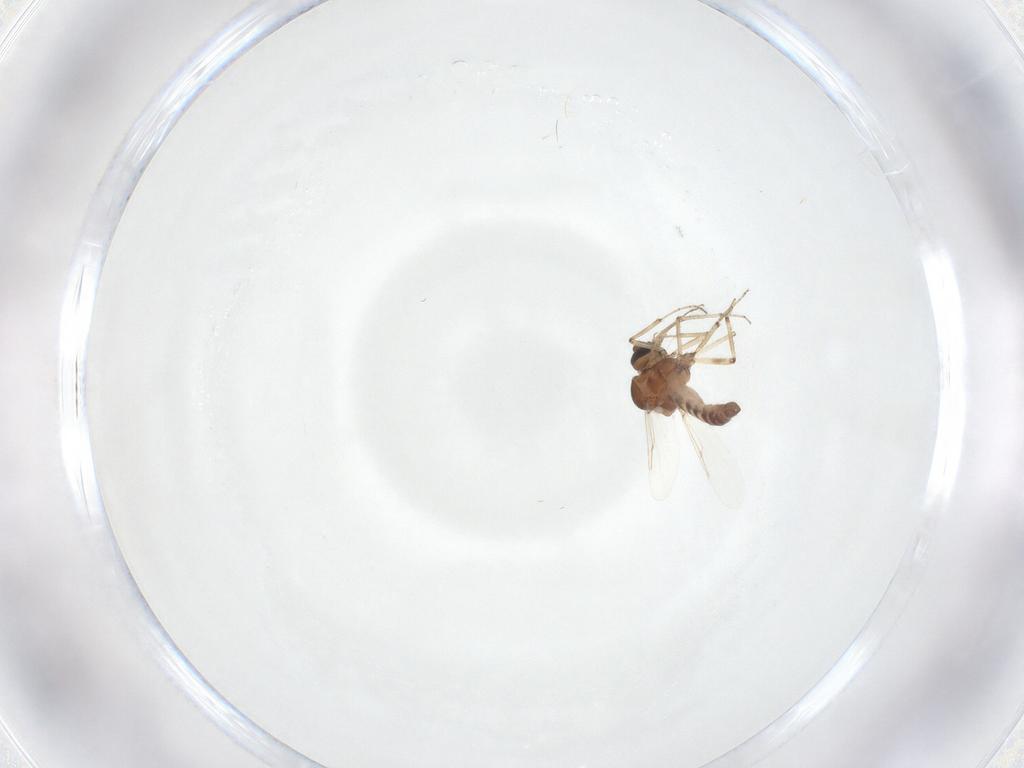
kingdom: Animalia
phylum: Arthropoda
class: Insecta
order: Diptera
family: Ceratopogonidae
